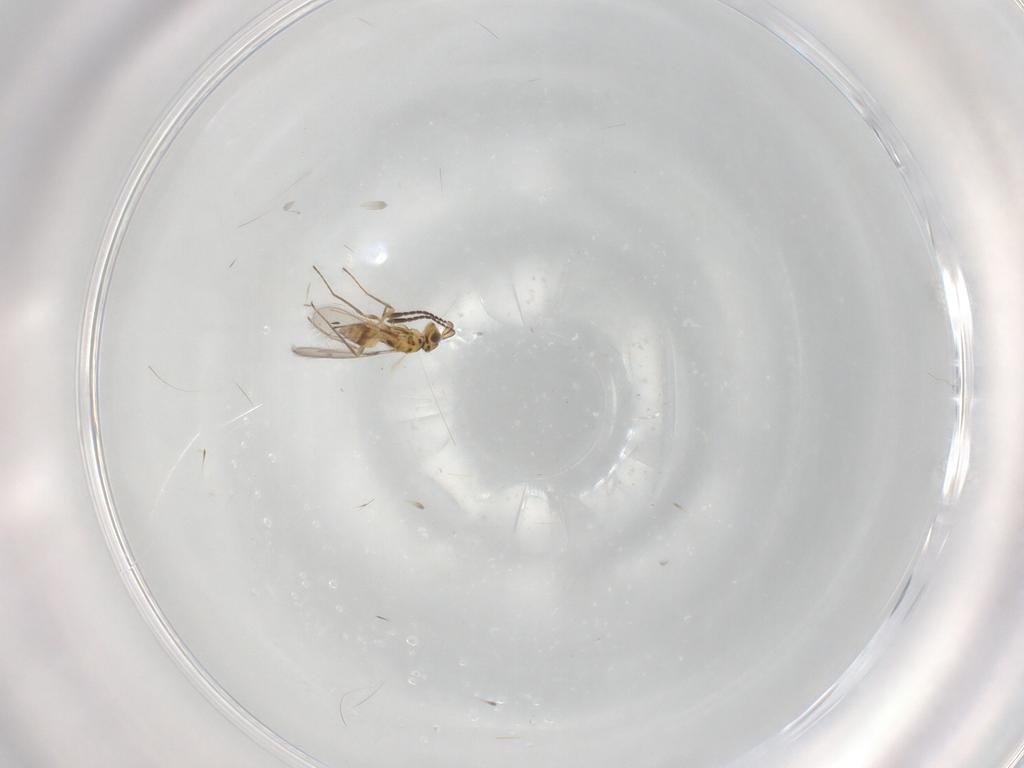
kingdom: Animalia
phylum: Arthropoda
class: Insecta
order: Hymenoptera
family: Mymaridae
